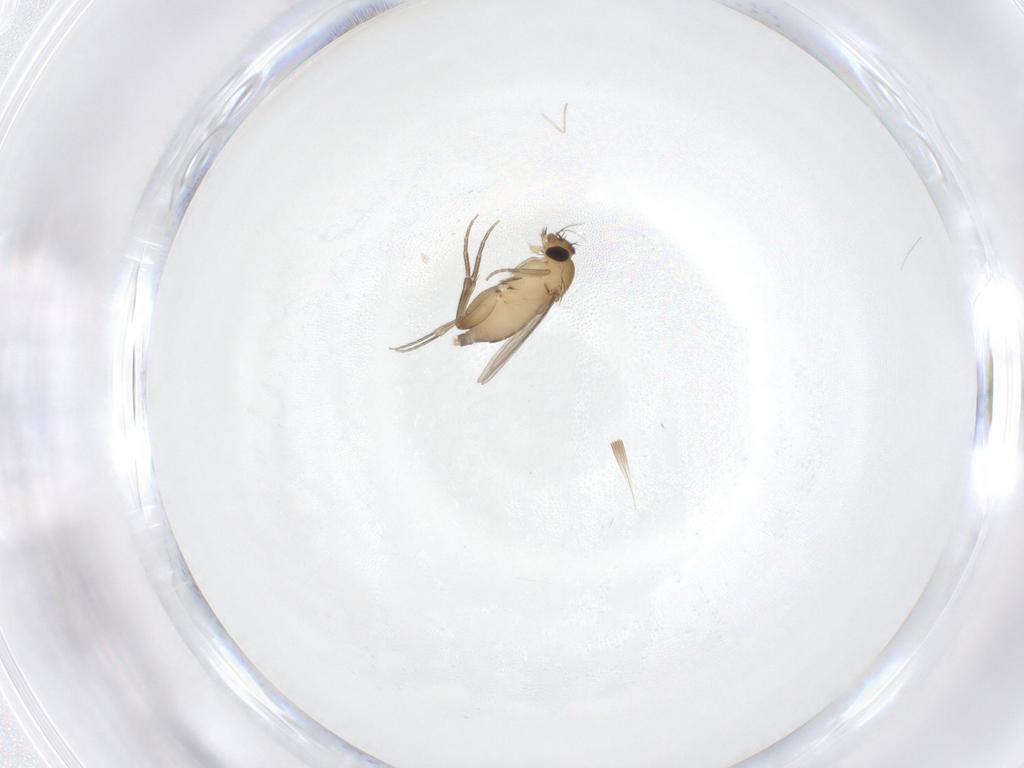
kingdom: Animalia
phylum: Arthropoda
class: Insecta
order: Diptera
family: Phoridae
